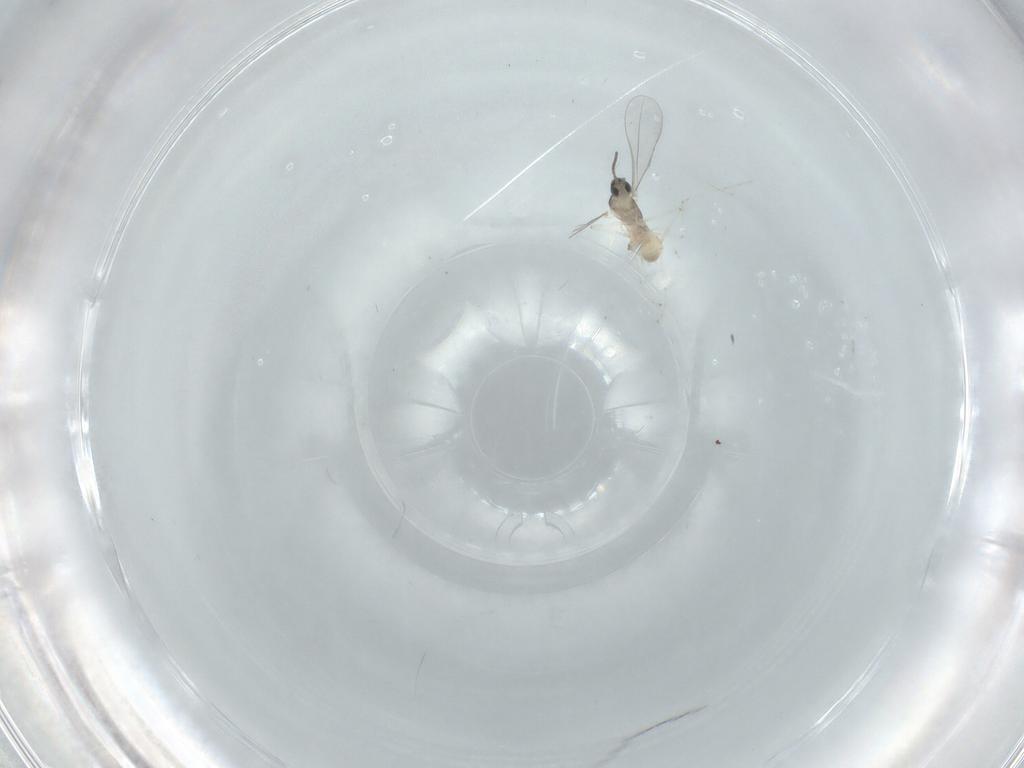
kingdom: Animalia
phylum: Arthropoda
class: Insecta
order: Diptera
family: Cecidomyiidae
